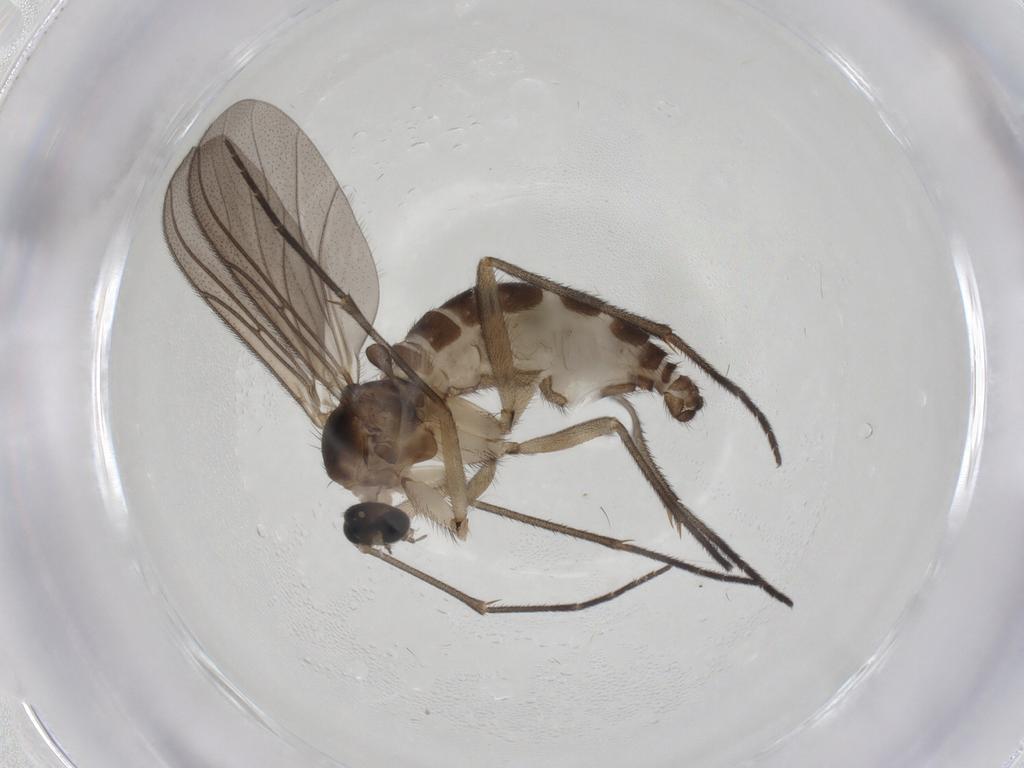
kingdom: Animalia
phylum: Arthropoda
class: Insecta
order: Diptera
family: Sciaridae
